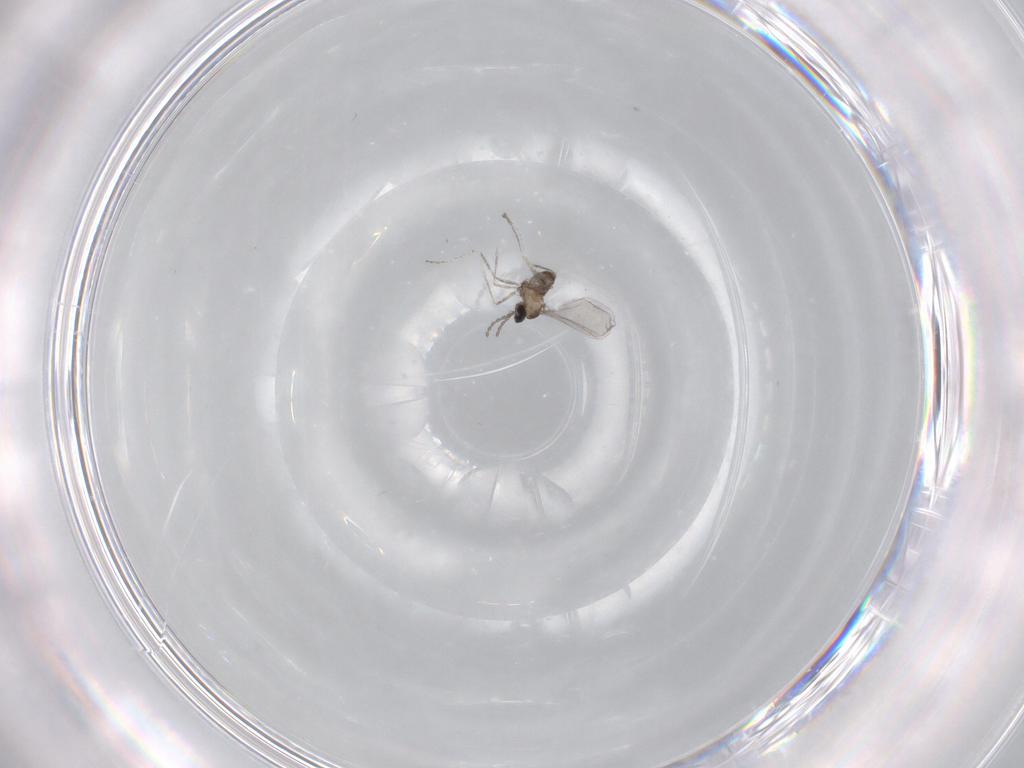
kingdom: Animalia
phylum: Arthropoda
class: Insecta
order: Diptera
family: Cecidomyiidae
